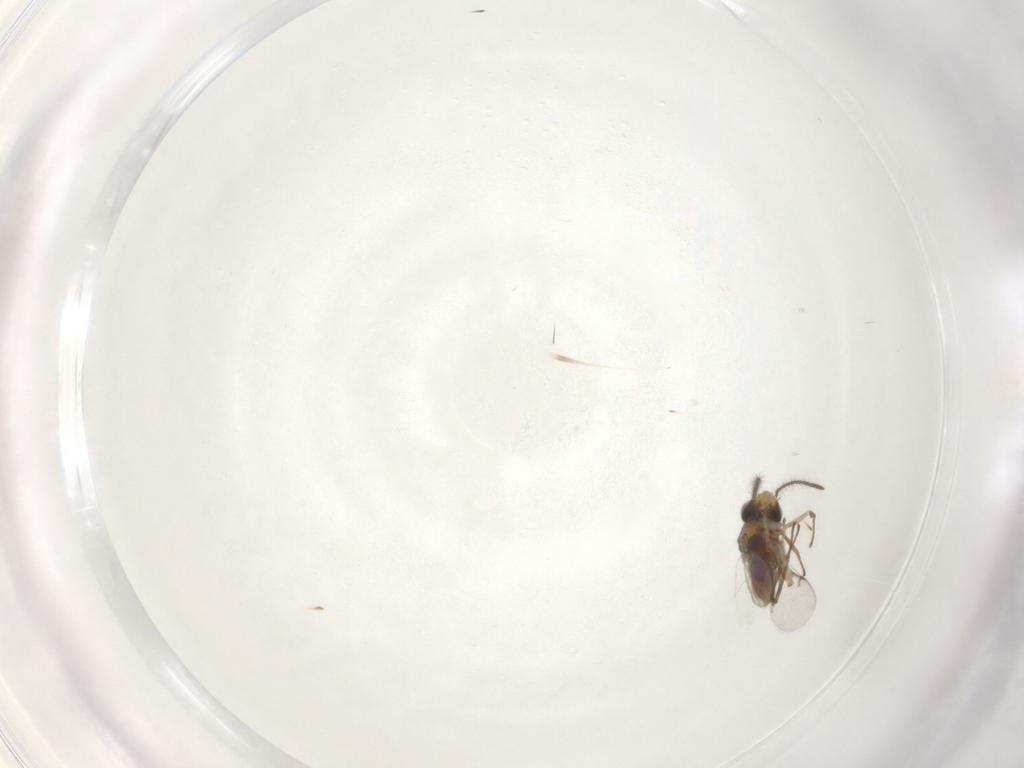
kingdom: Animalia
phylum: Arthropoda
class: Insecta
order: Hymenoptera
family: Encyrtidae
